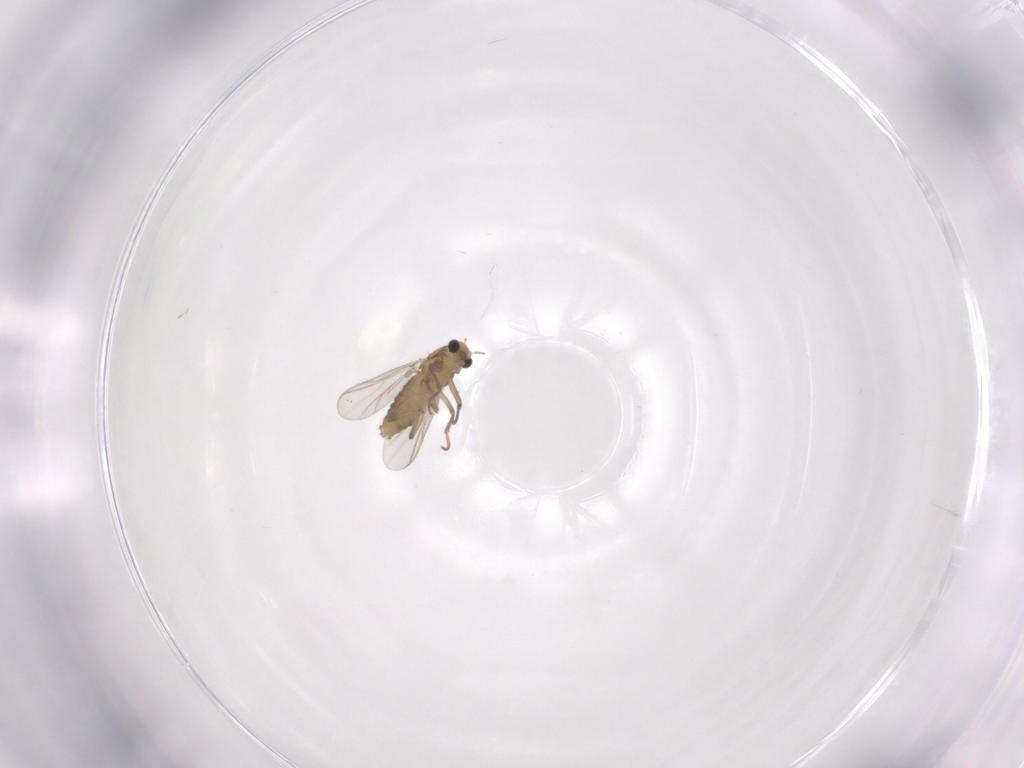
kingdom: Animalia
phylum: Arthropoda
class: Insecta
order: Diptera
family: Chironomidae
